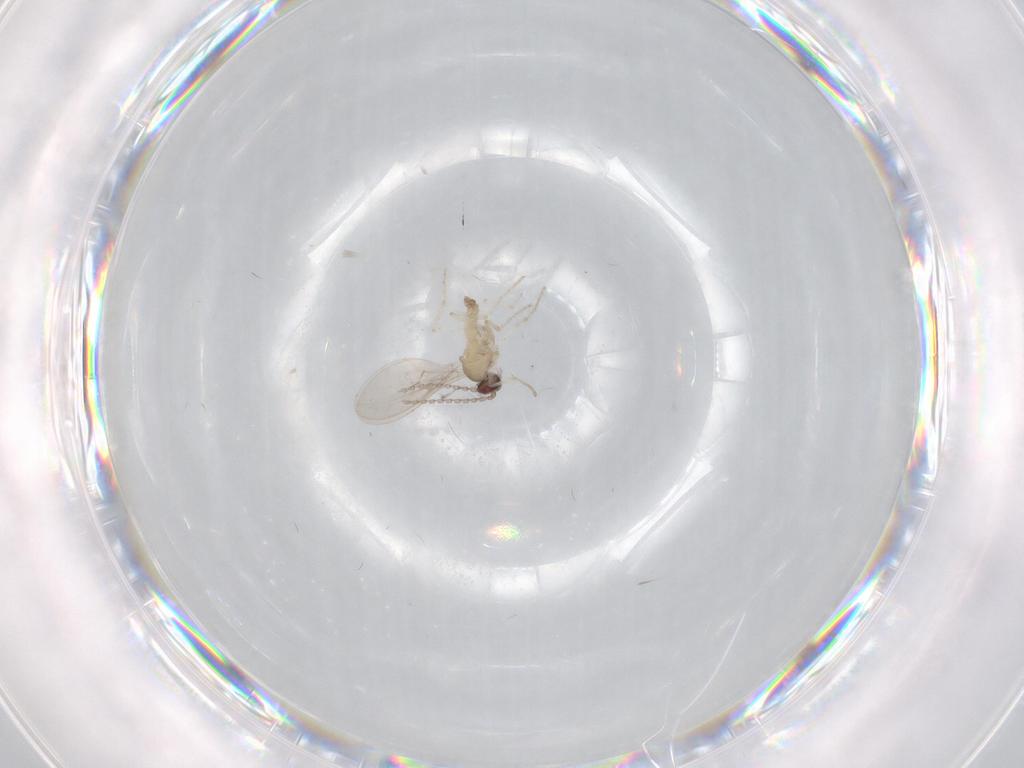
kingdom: Animalia
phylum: Arthropoda
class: Insecta
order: Diptera
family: Cecidomyiidae
